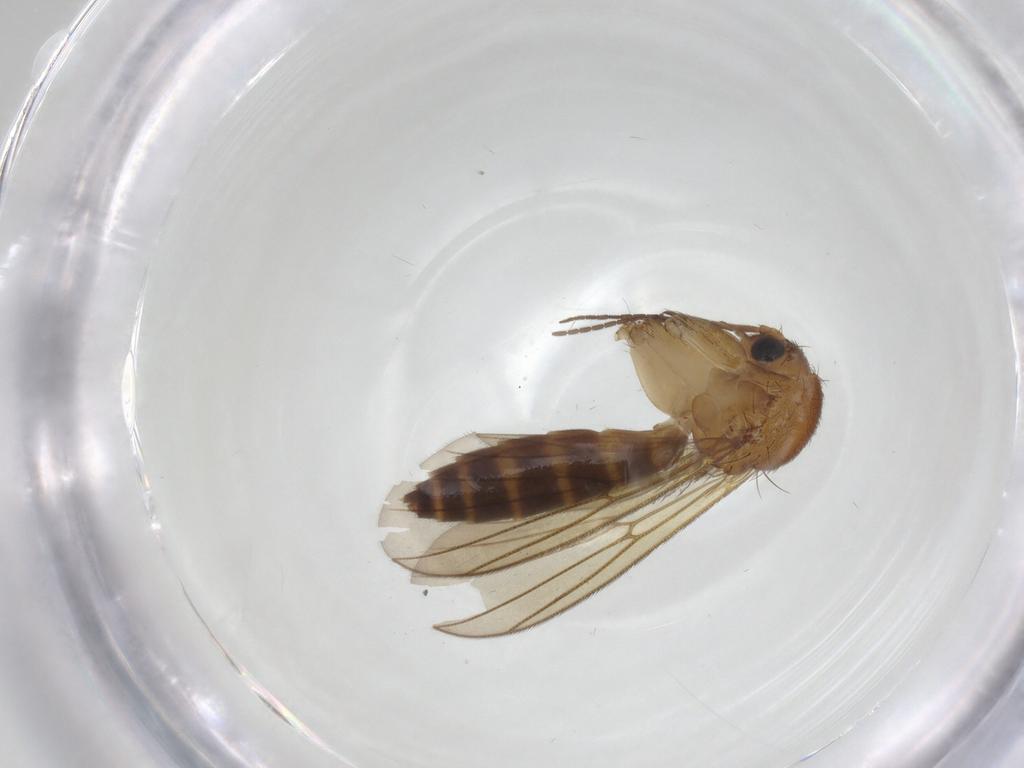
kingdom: Animalia
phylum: Arthropoda
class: Insecta
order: Diptera
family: Mycetophilidae
